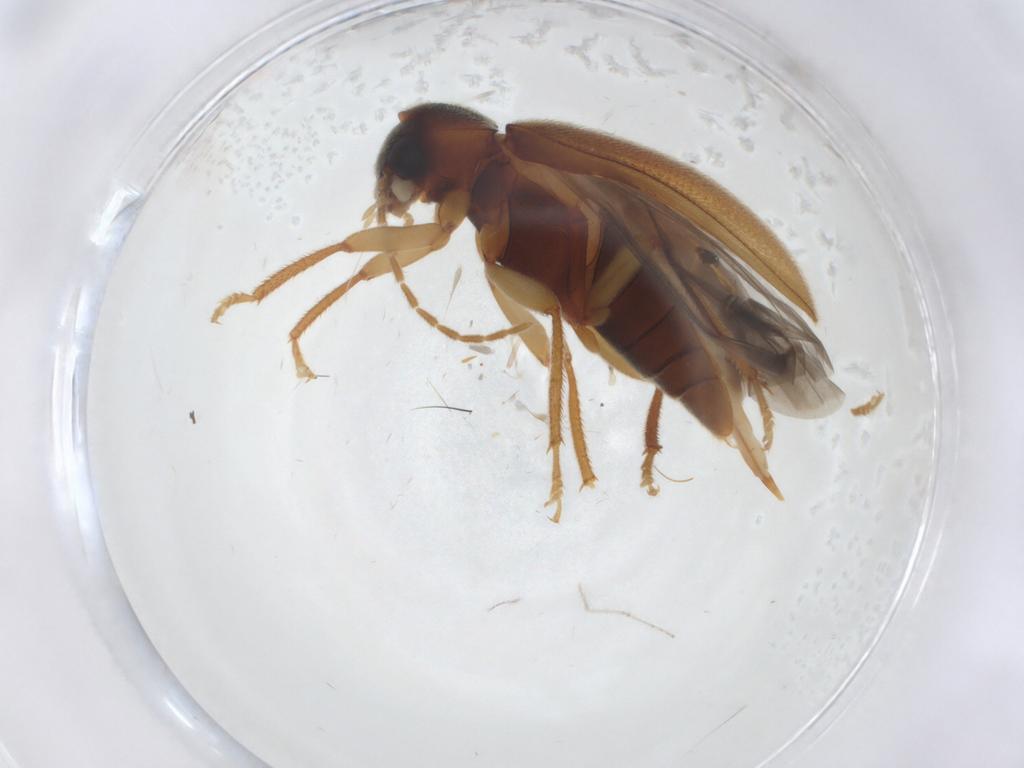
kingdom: Animalia
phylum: Arthropoda
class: Insecta
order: Coleoptera
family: Ptilodactylidae
